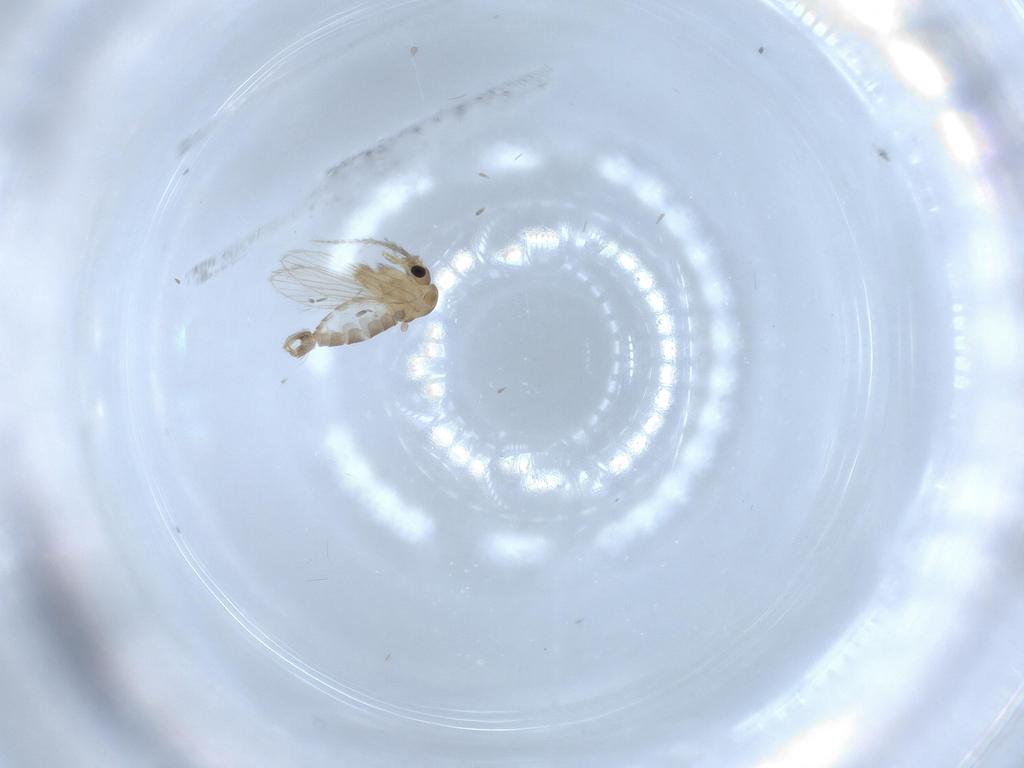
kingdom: Animalia
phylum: Arthropoda
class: Insecta
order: Diptera
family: Psychodidae
